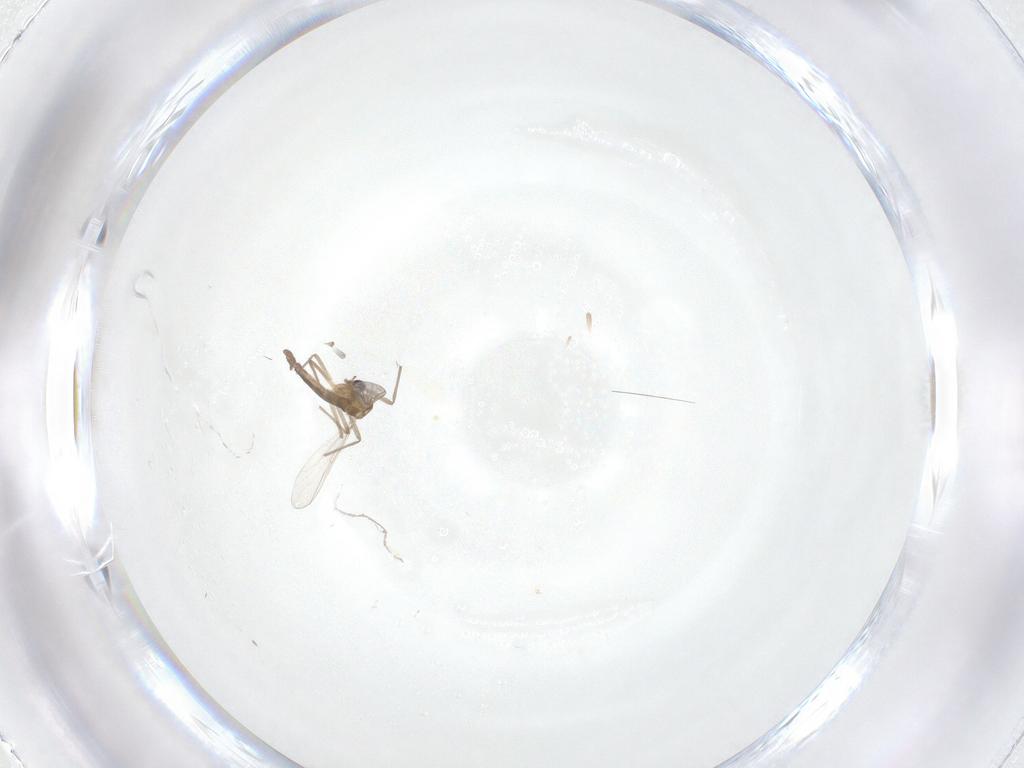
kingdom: Animalia
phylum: Arthropoda
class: Insecta
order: Diptera
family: Chironomidae
